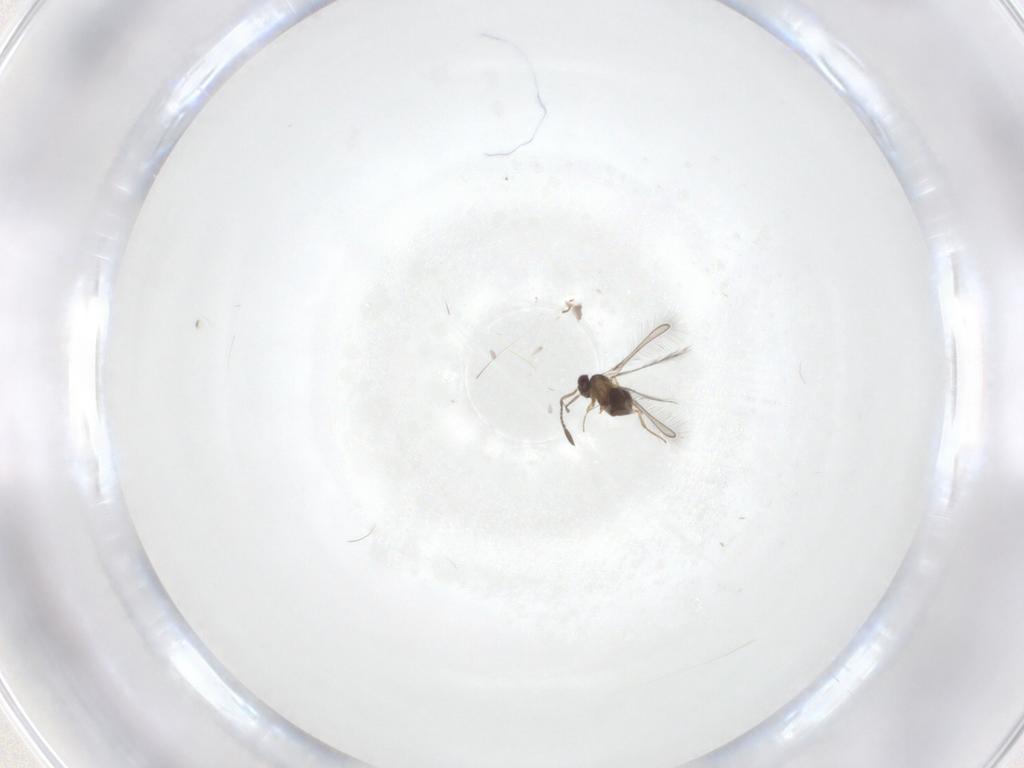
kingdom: Animalia
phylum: Arthropoda
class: Insecta
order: Hymenoptera
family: Mymaridae
